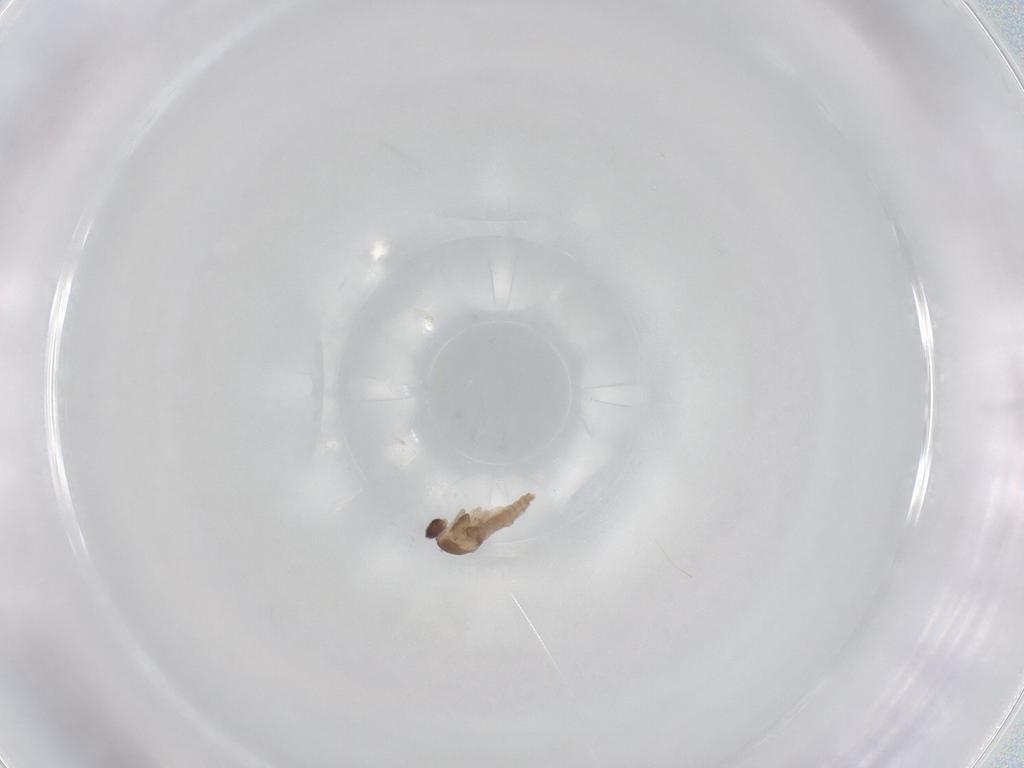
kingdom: Animalia
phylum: Arthropoda
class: Insecta
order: Diptera
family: Cecidomyiidae
